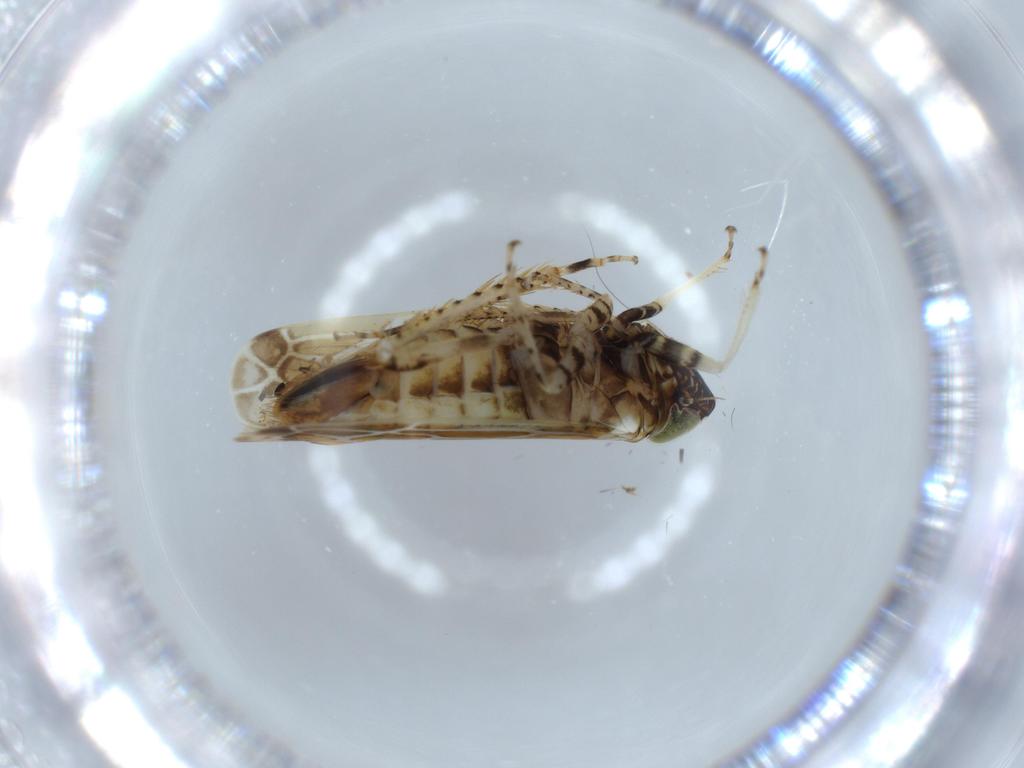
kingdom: Animalia
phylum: Arthropoda
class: Insecta
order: Hemiptera
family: Cicadellidae
